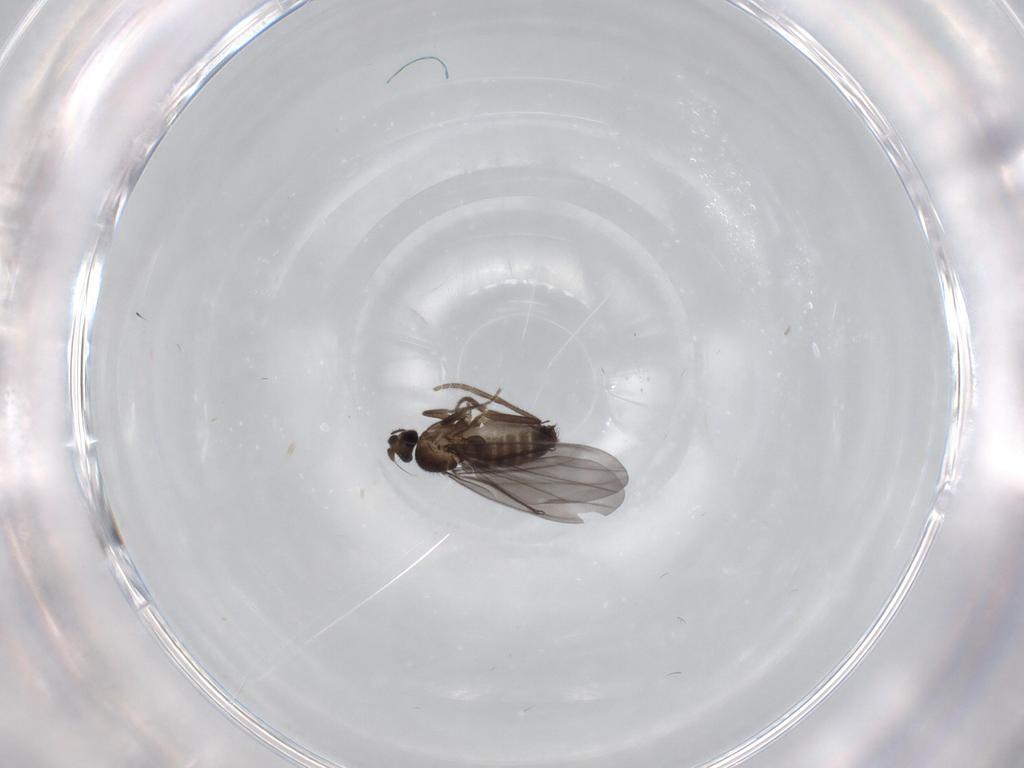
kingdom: Animalia
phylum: Arthropoda
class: Insecta
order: Diptera
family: Phoridae
